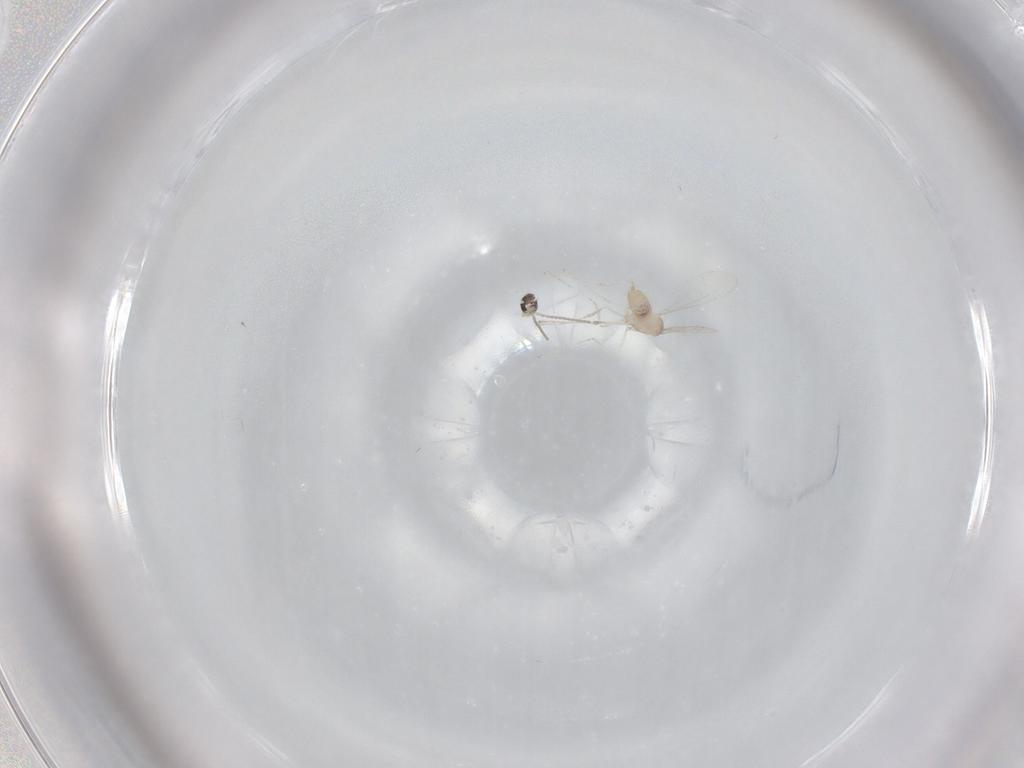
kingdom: Animalia
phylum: Arthropoda
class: Insecta
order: Diptera
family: Cecidomyiidae
